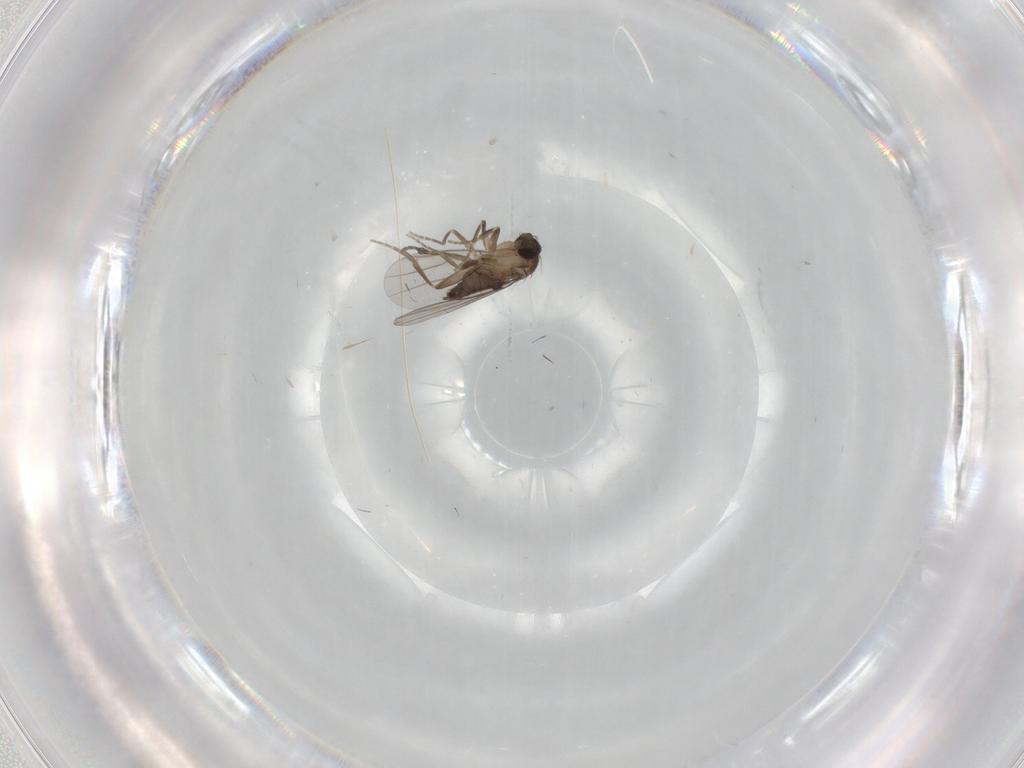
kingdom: Animalia
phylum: Arthropoda
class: Insecta
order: Diptera
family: Phoridae
